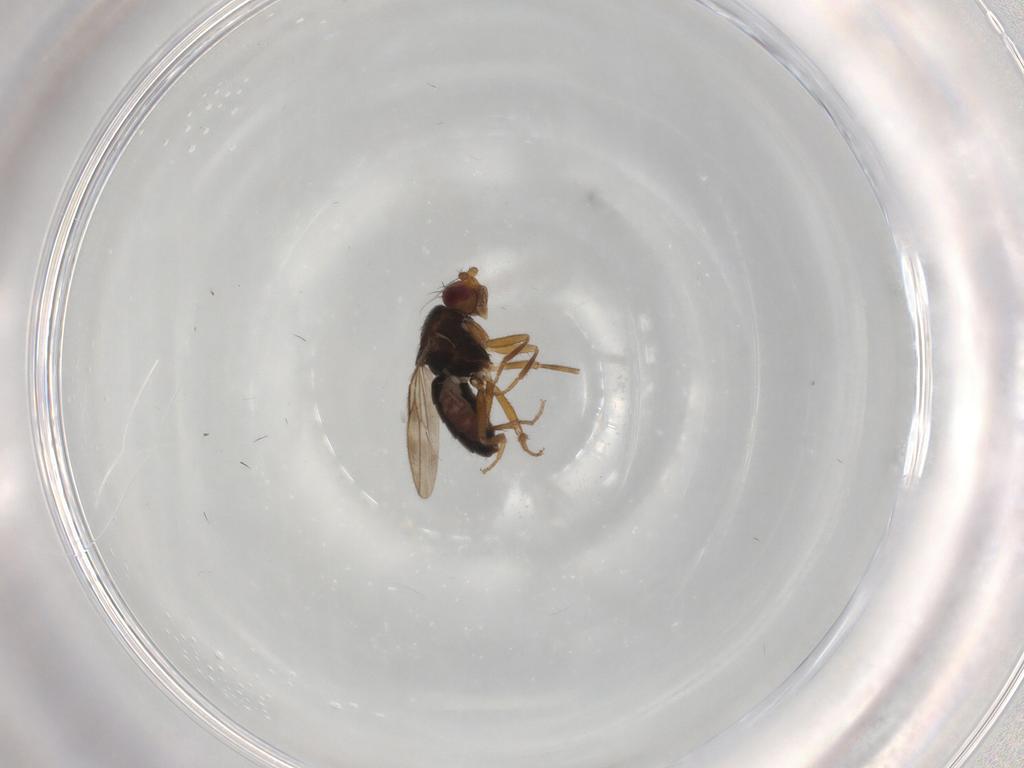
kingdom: Animalia
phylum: Arthropoda
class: Insecta
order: Diptera
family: Sphaeroceridae
